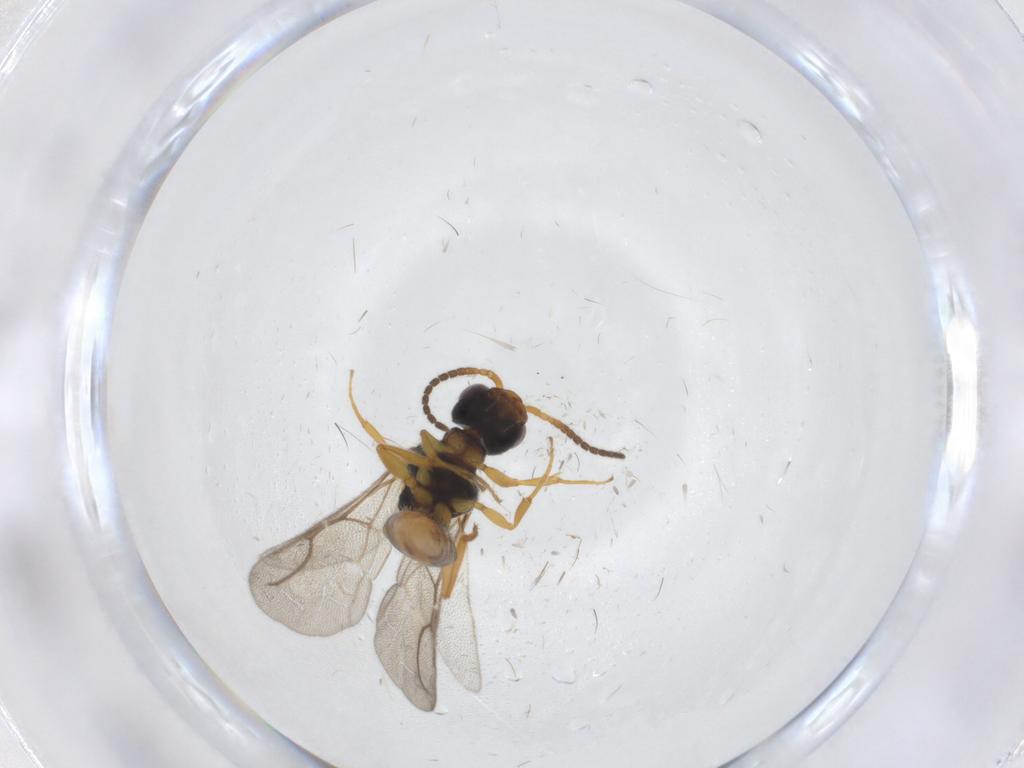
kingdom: Animalia
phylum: Arthropoda
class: Insecta
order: Hymenoptera
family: Bethylidae
